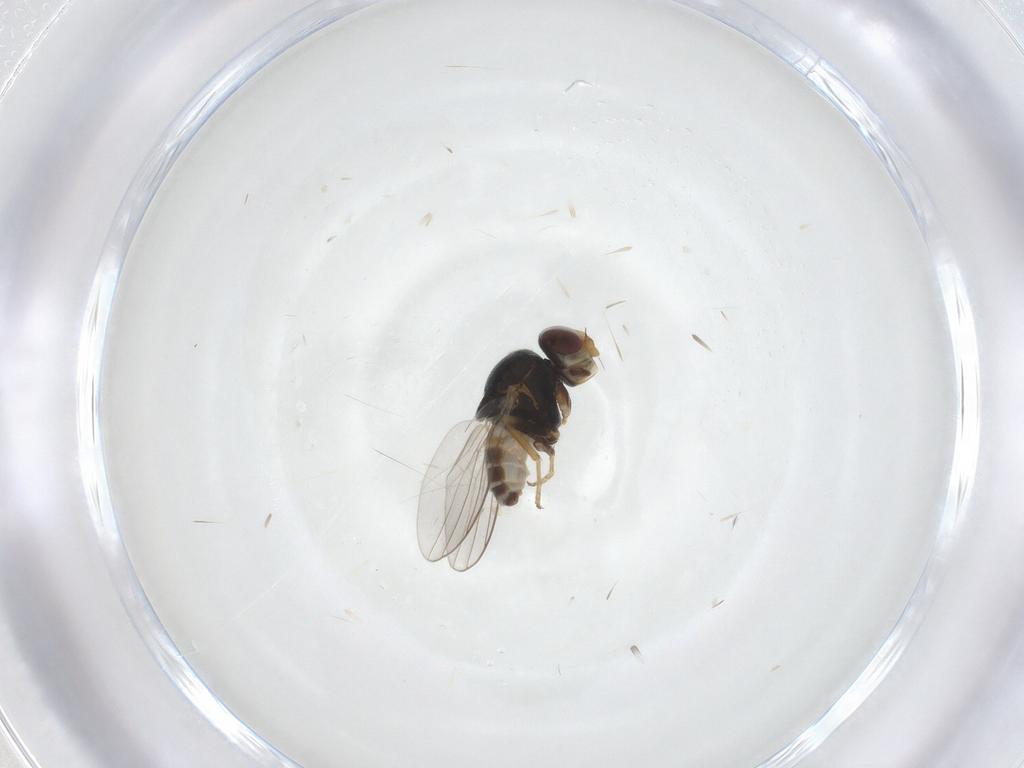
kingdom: Animalia
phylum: Arthropoda
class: Insecta
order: Diptera
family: Chloropidae
